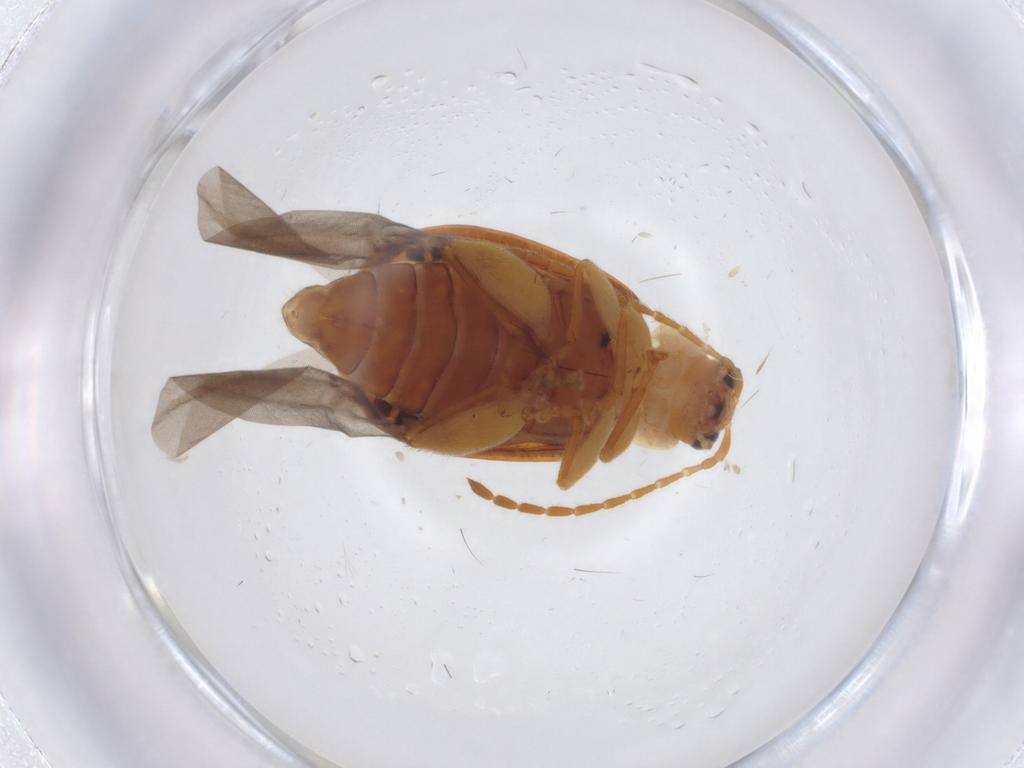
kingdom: Animalia
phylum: Arthropoda
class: Insecta
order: Coleoptera
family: Chrysomelidae
